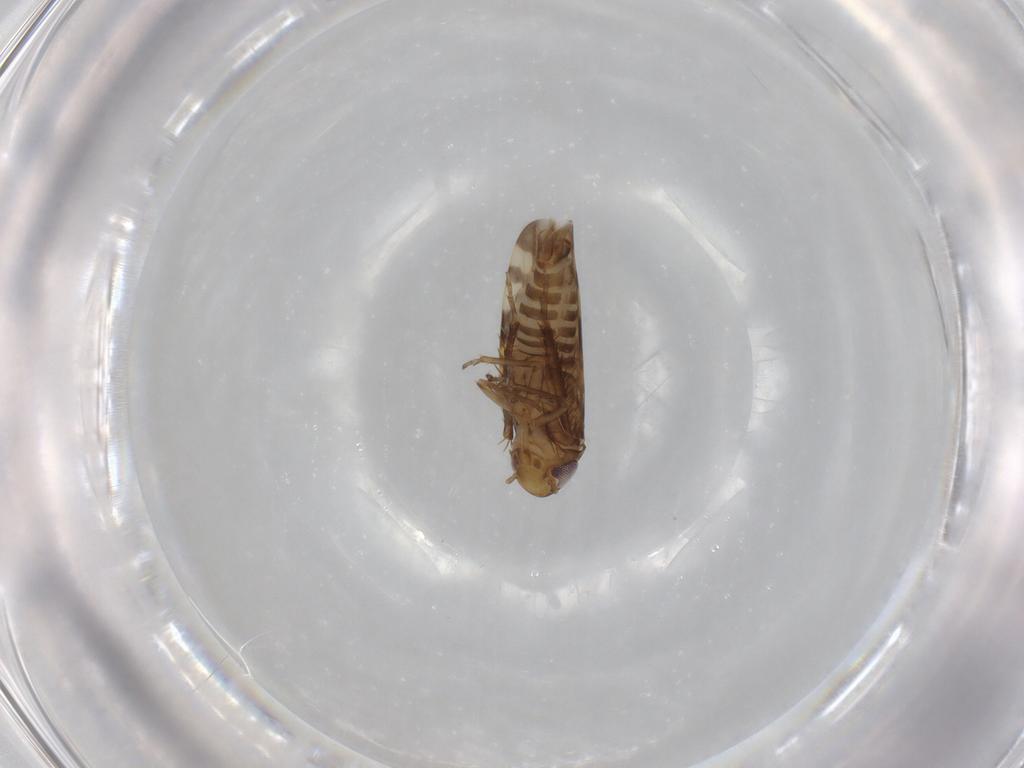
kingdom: Animalia
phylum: Arthropoda
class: Insecta
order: Hemiptera
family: Cicadellidae
